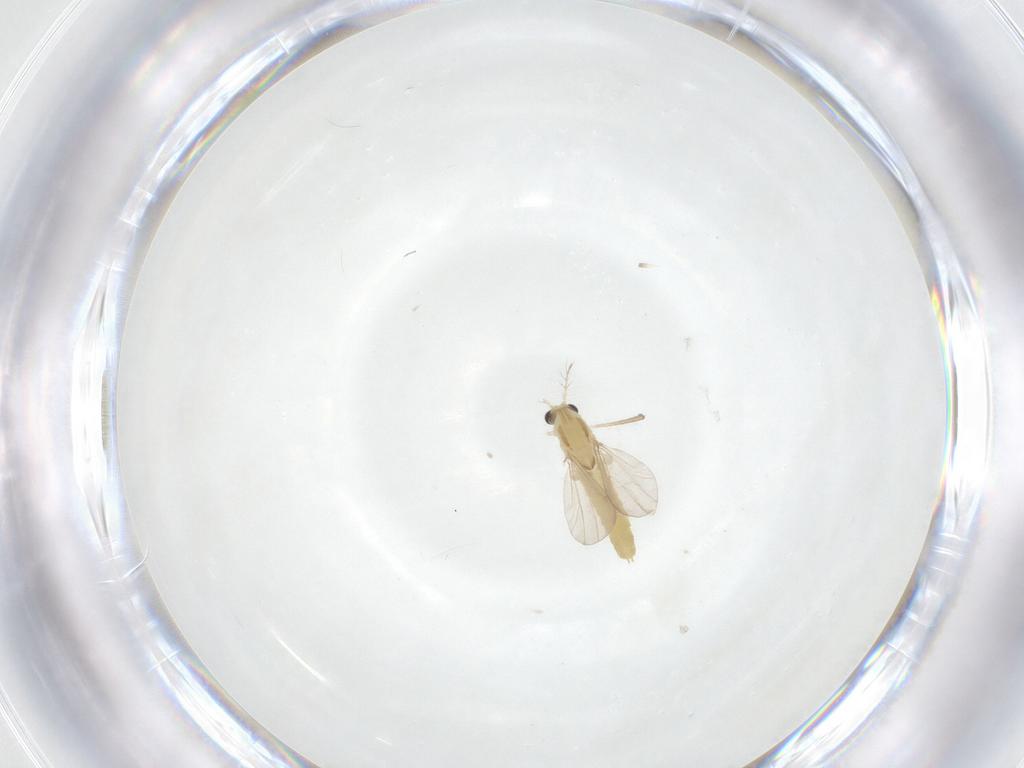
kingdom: Animalia
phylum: Arthropoda
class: Insecta
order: Diptera
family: Chironomidae
